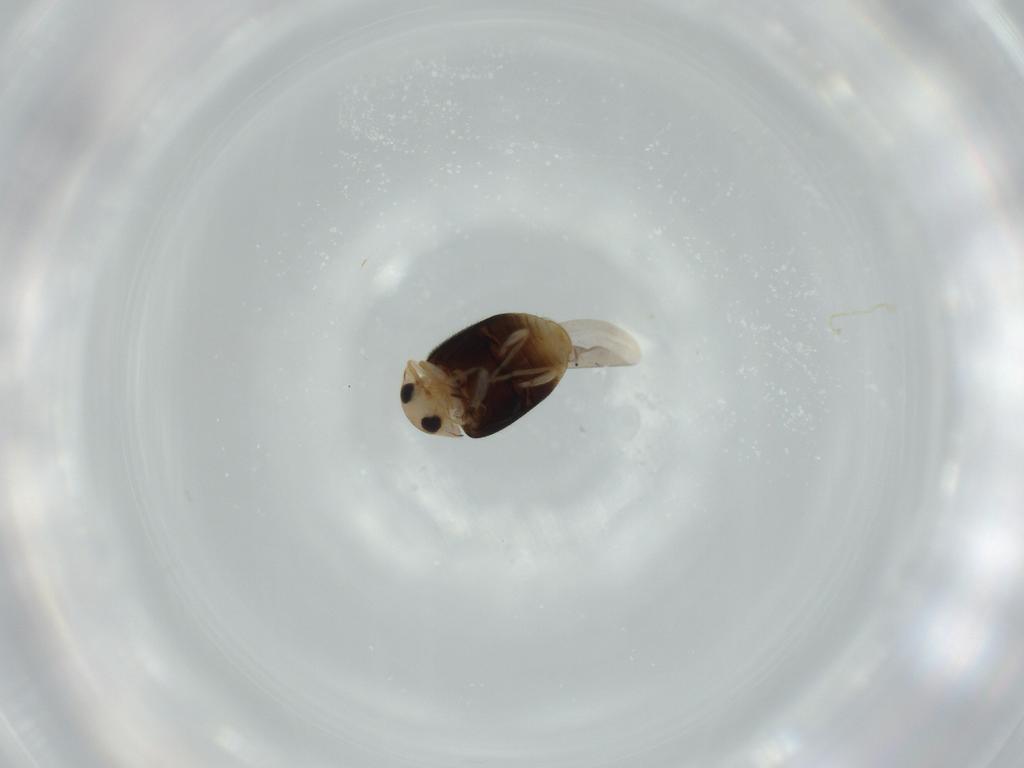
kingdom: Animalia
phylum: Arthropoda
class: Insecta
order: Coleoptera
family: Coccinellidae
